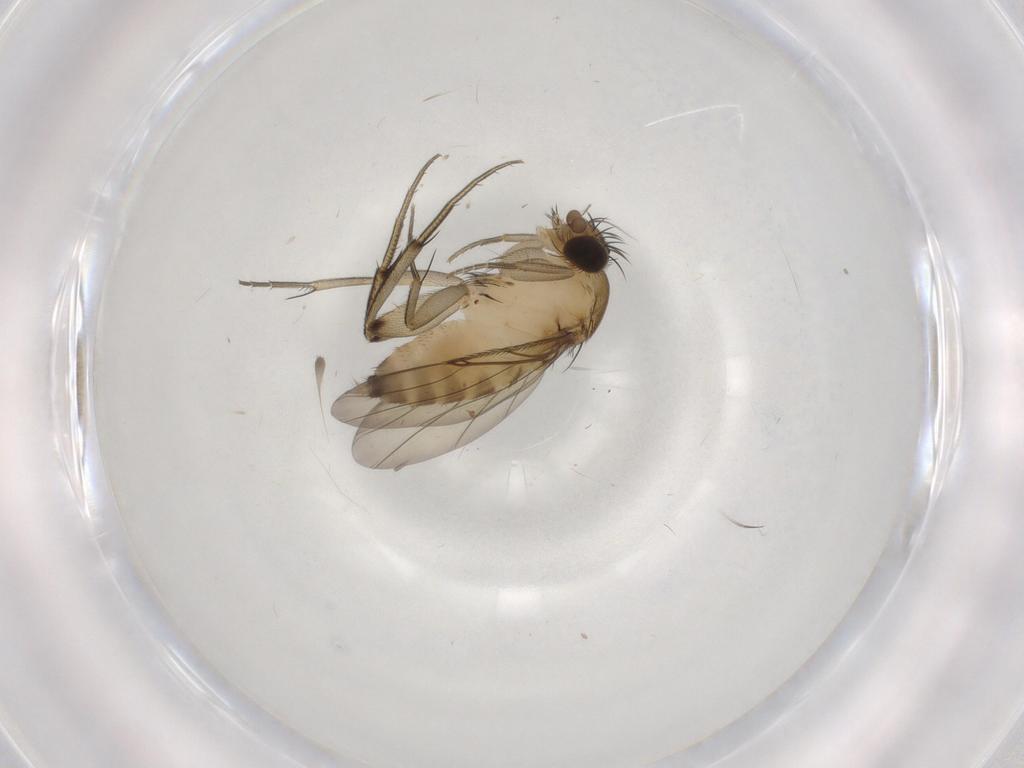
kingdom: Animalia
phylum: Arthropoda
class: Insecta
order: Diptera
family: Phoridae
